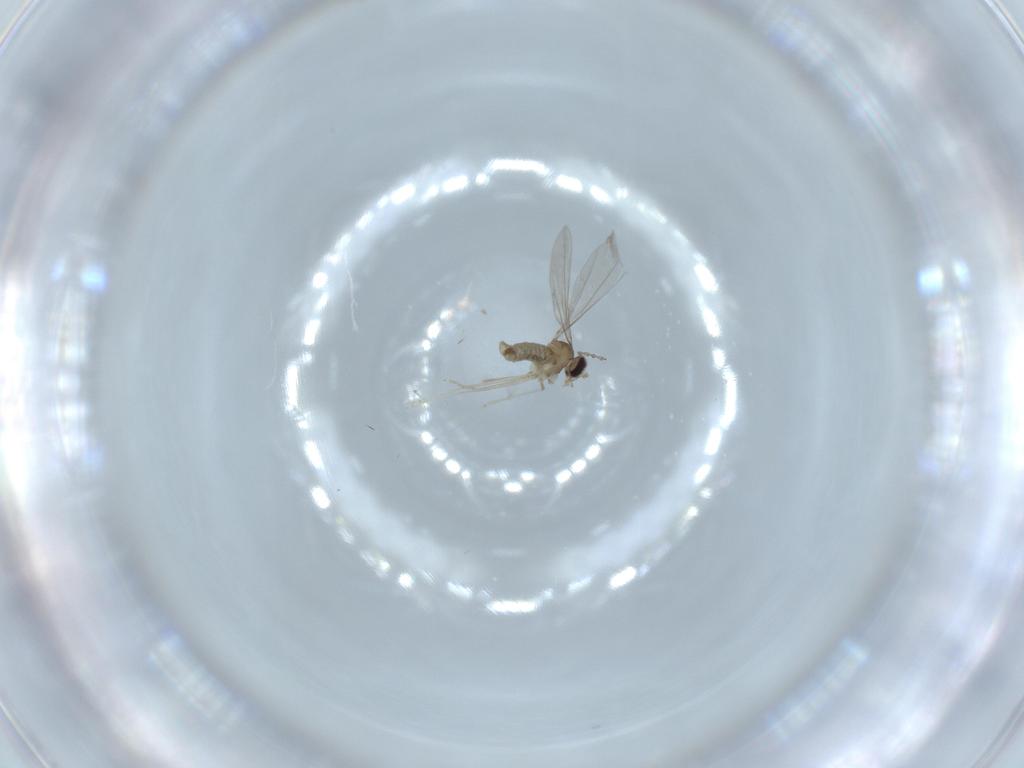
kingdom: Animalia
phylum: Arthropoda
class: Insecta
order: Diptera
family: Cecidomyiidae
